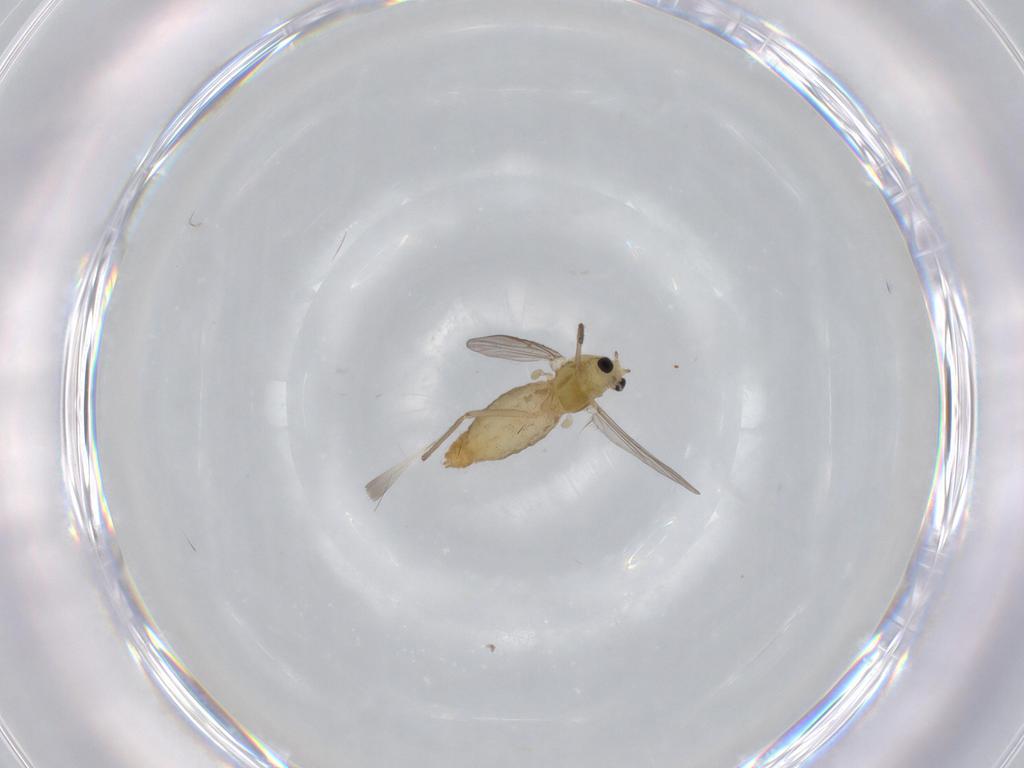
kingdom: Animalia
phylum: Arthropoda
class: Insecta
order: Diptera
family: Chironomidae
